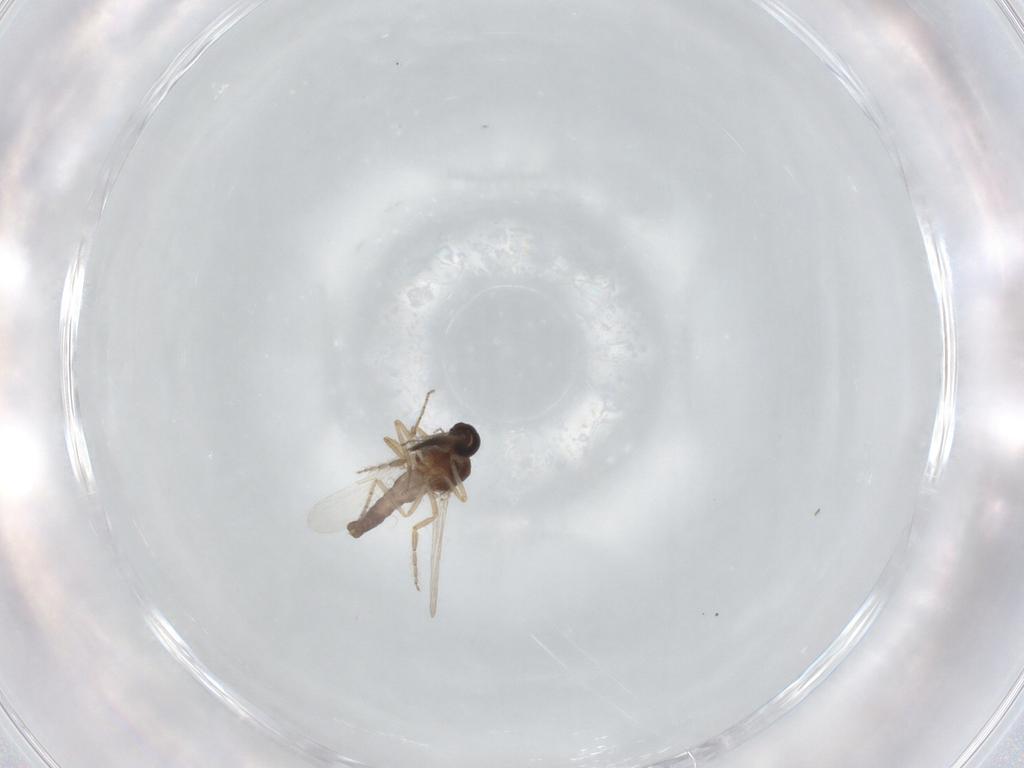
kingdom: Animalia
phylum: Arthropoda
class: Insecta
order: Diptera
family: Ceratopogonidae
